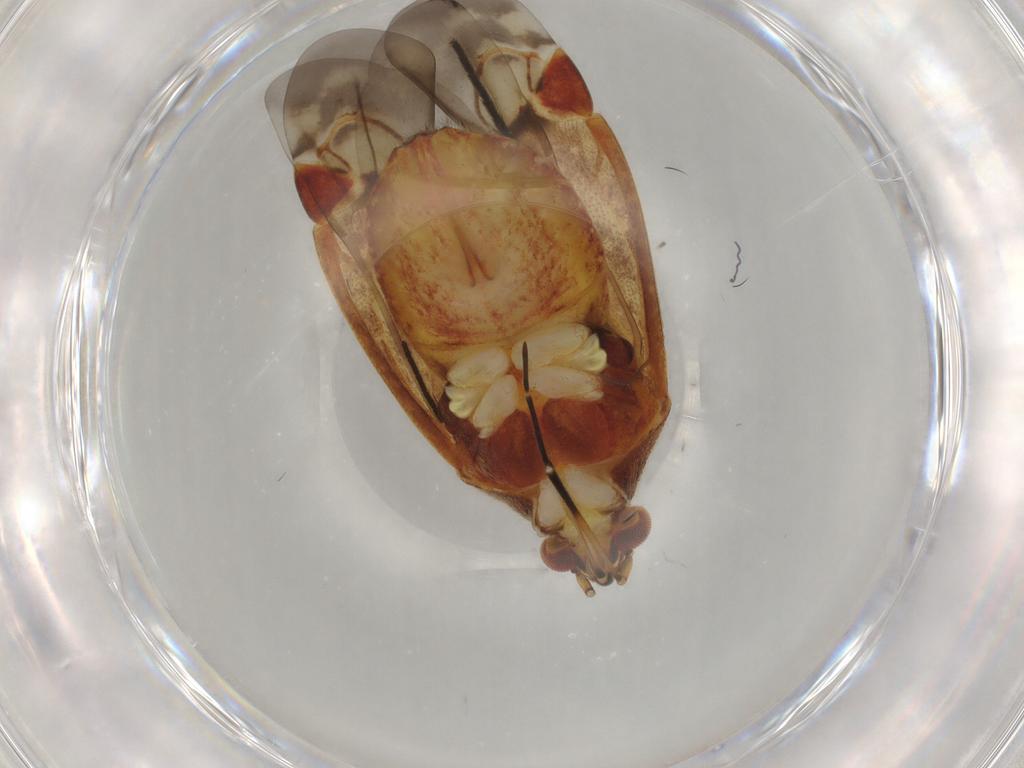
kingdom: Animalia
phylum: Arthropoda
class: Insecta
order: Hemiptera
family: Miridae
